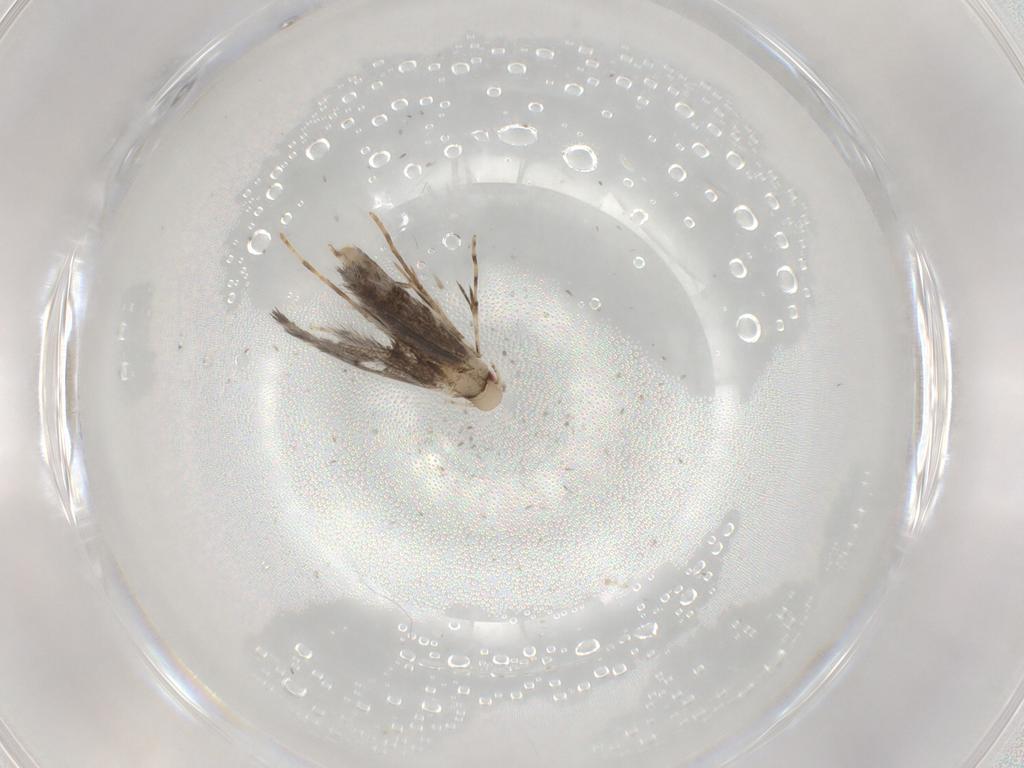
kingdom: Animalia
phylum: Arthropoda
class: Insecta
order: Lepidoptera
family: Gracillariidae
